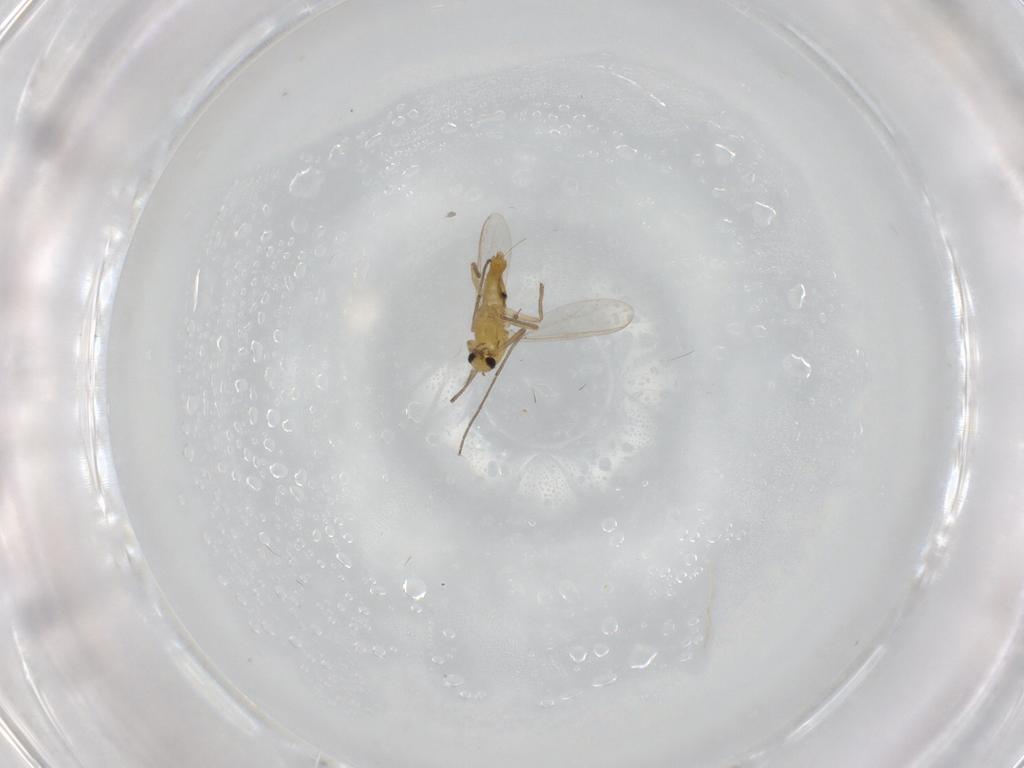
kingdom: Animalia
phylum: Arthropoda
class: Insecta
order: Diptera
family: Chironomidae
